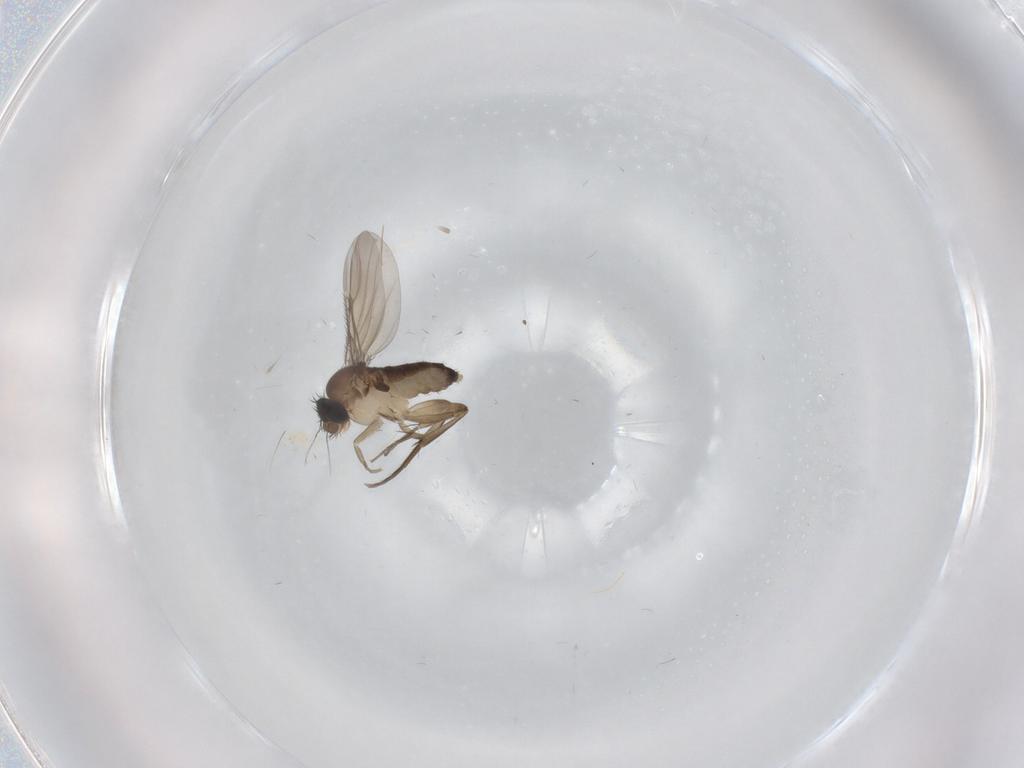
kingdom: Animalia
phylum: Arthropoda
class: Insecta
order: Diptera
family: Phoridae
